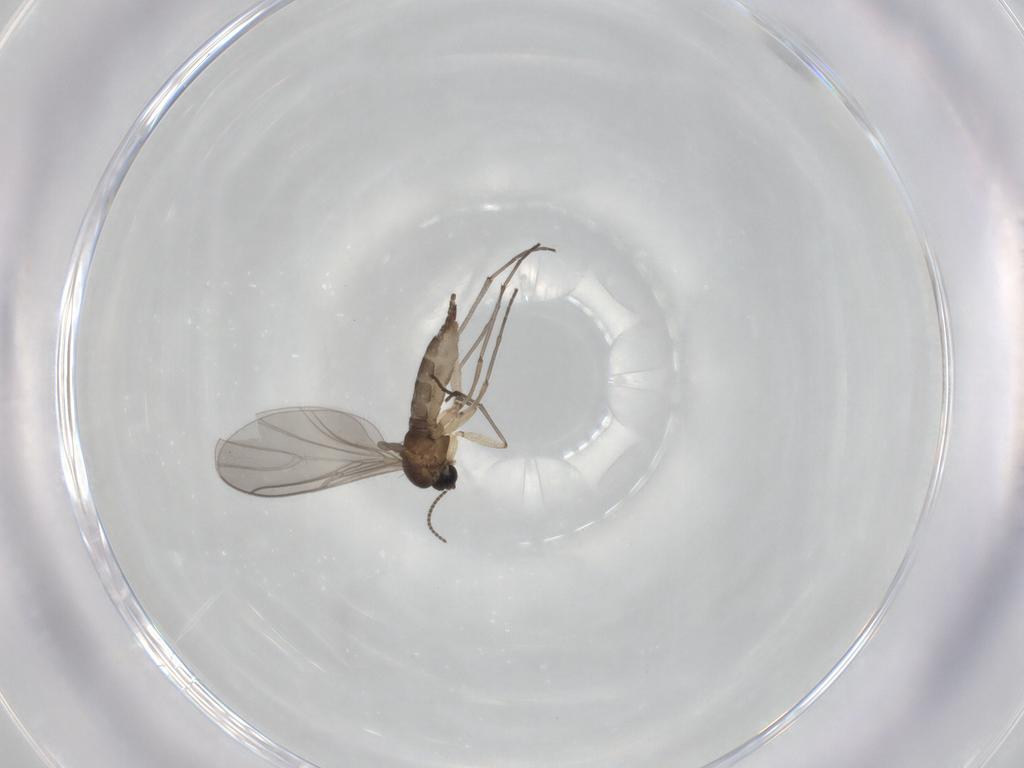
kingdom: Animalia
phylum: Arthropoda
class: Insecta
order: Diptera
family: Sciaridae
